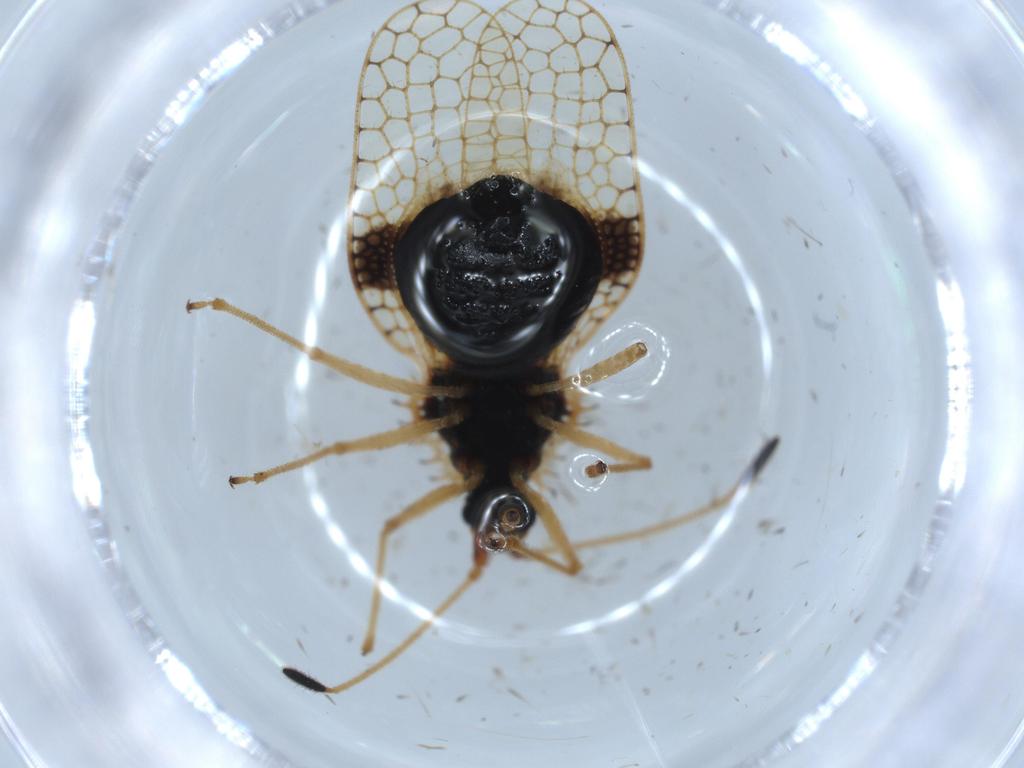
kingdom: Animalia
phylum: Arthropoda
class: Insecta
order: Hemiptera
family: Tingidae
